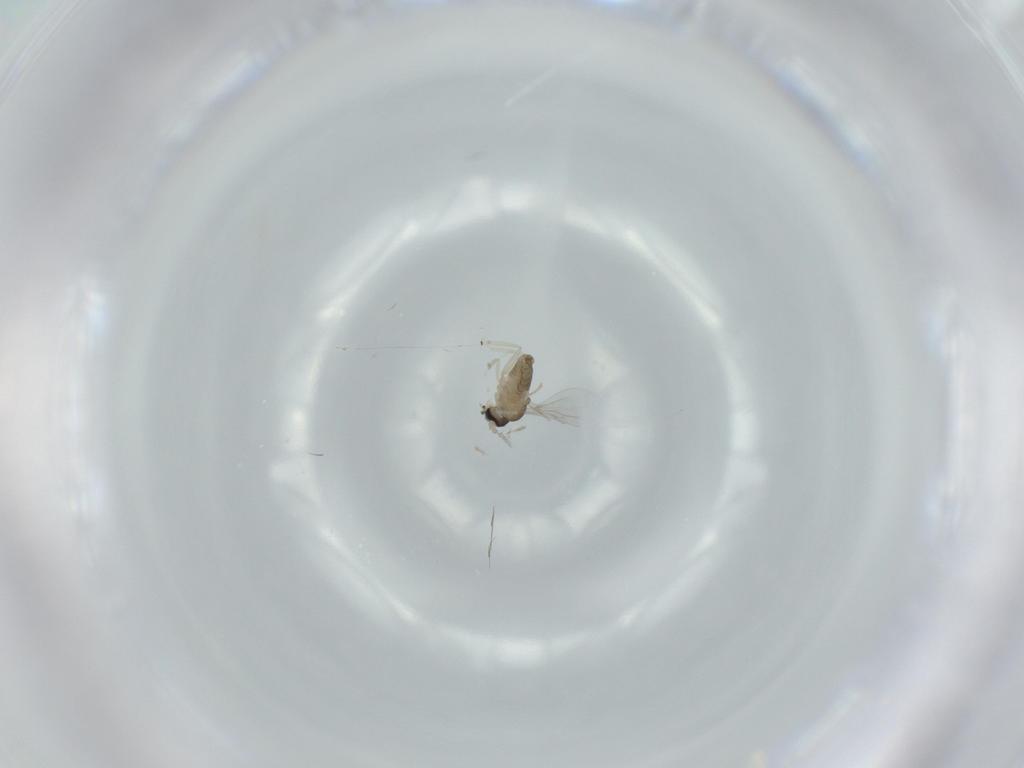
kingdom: Animalia
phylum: Arthropoda
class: Insecta
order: Diptera
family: Cecidomyiidae
